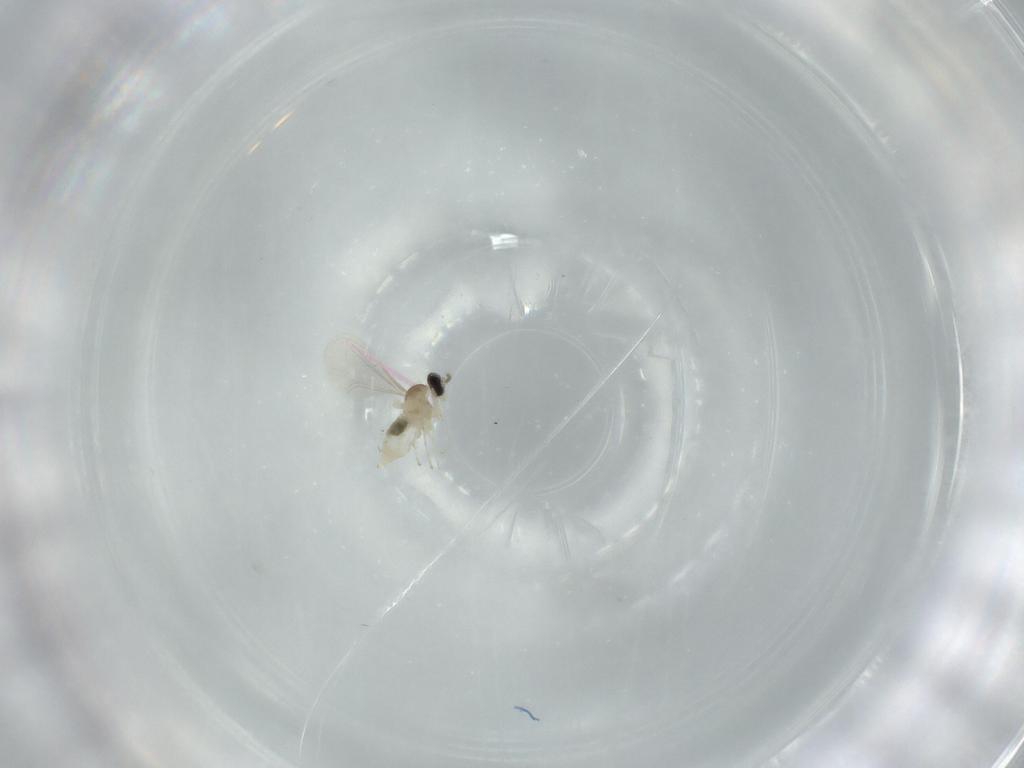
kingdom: Animalia
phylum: Arthropoda
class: Insecta
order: Diptera
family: Cecidomyiidae
